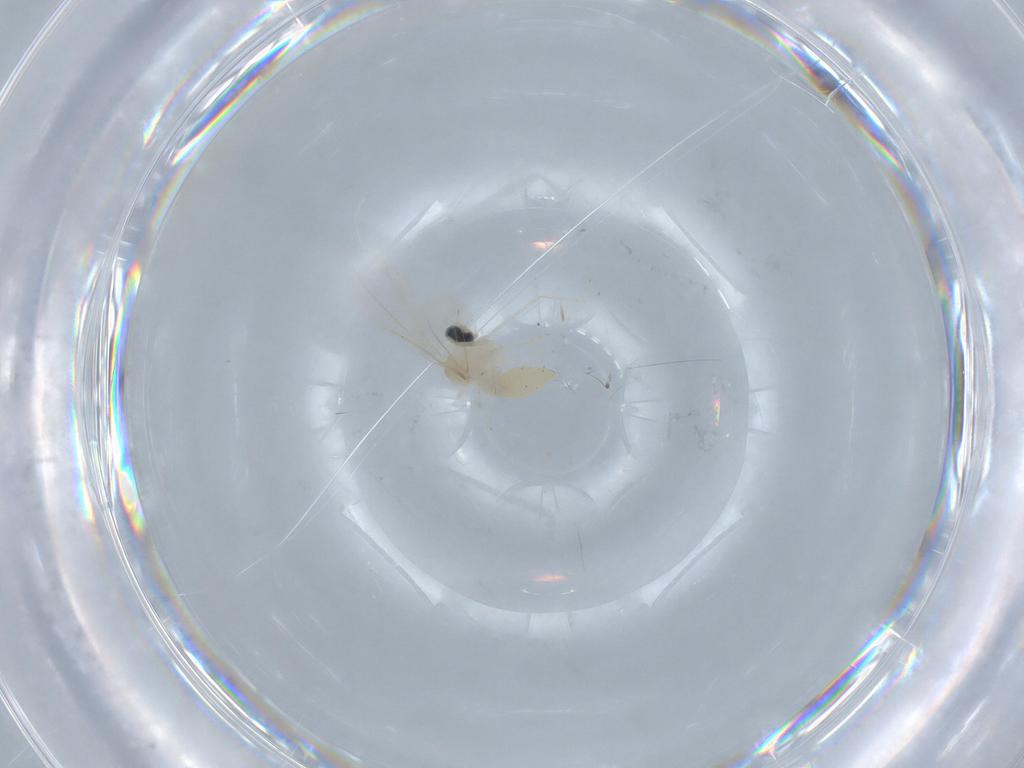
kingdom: Animalia
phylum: Arthropoda
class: Insecta
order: Diptera
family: Cecidomyiidae
